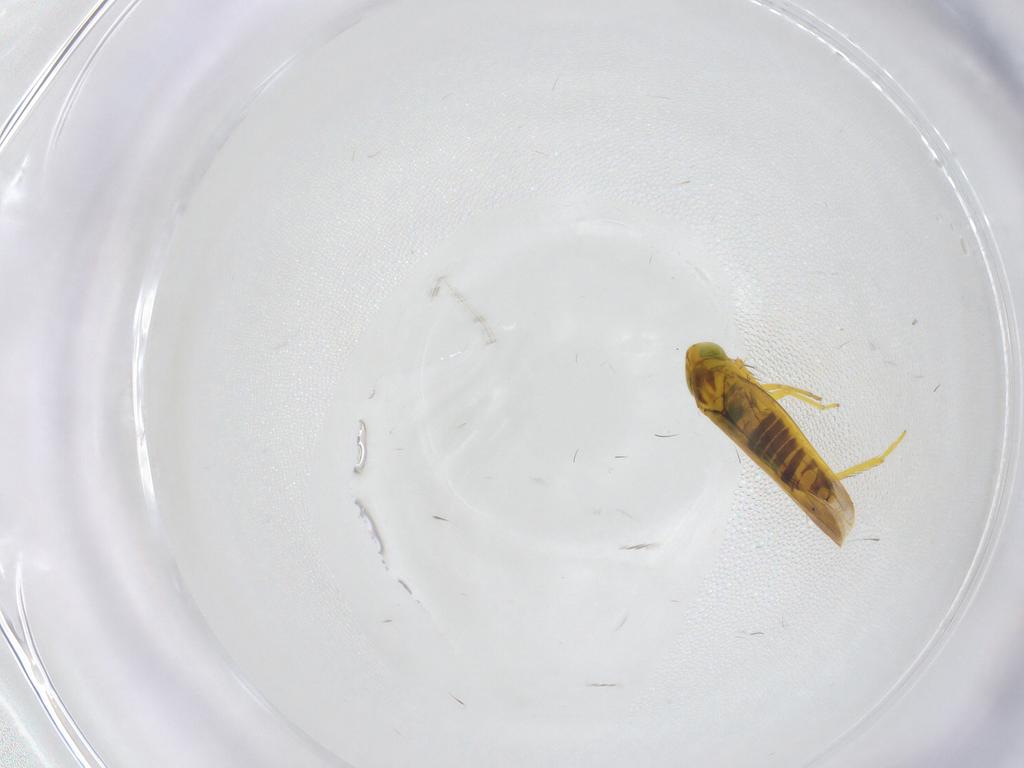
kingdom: Animalia
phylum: Arthropoda
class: Insecta
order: Hemiptera
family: Cicadellidae
